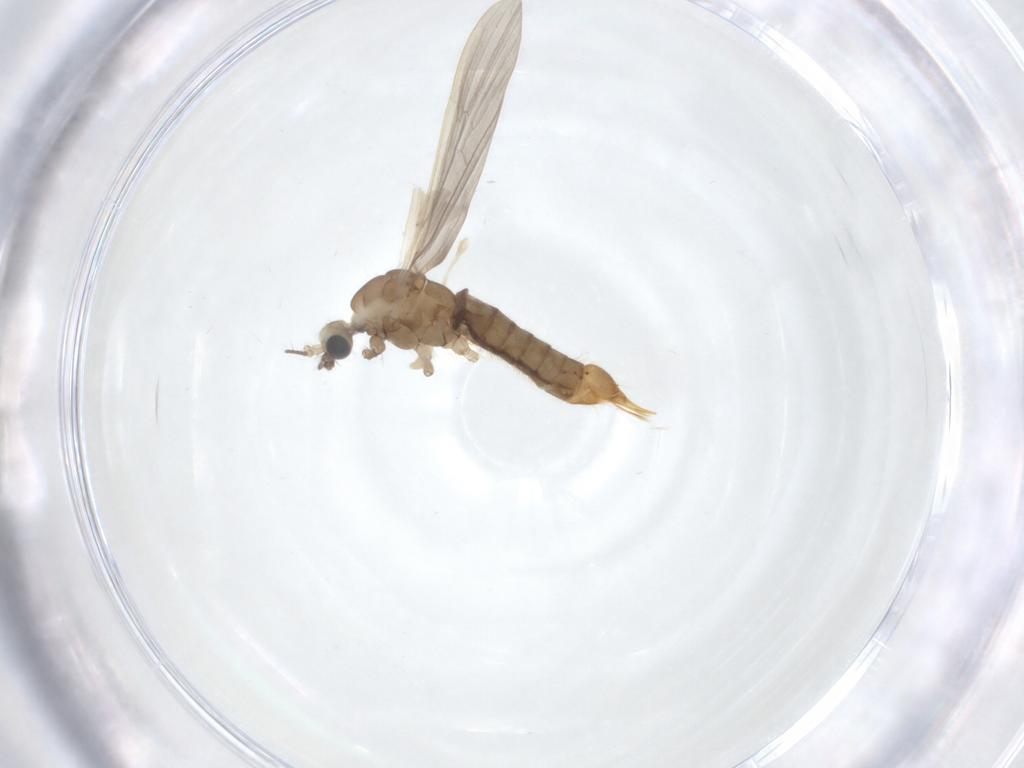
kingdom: Animalia
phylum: Arthropoda
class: Insecta
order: Diptera
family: Limoniidae
